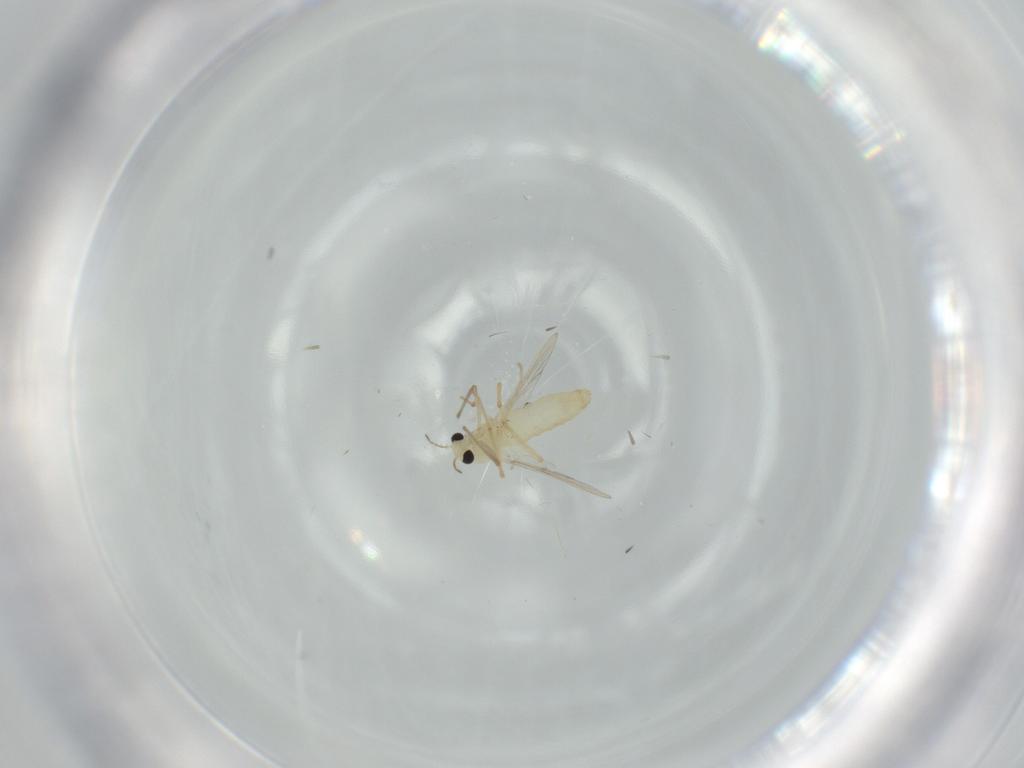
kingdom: Animalia
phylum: Arthropoda
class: Insecta
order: Diptera
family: Chironomidae
